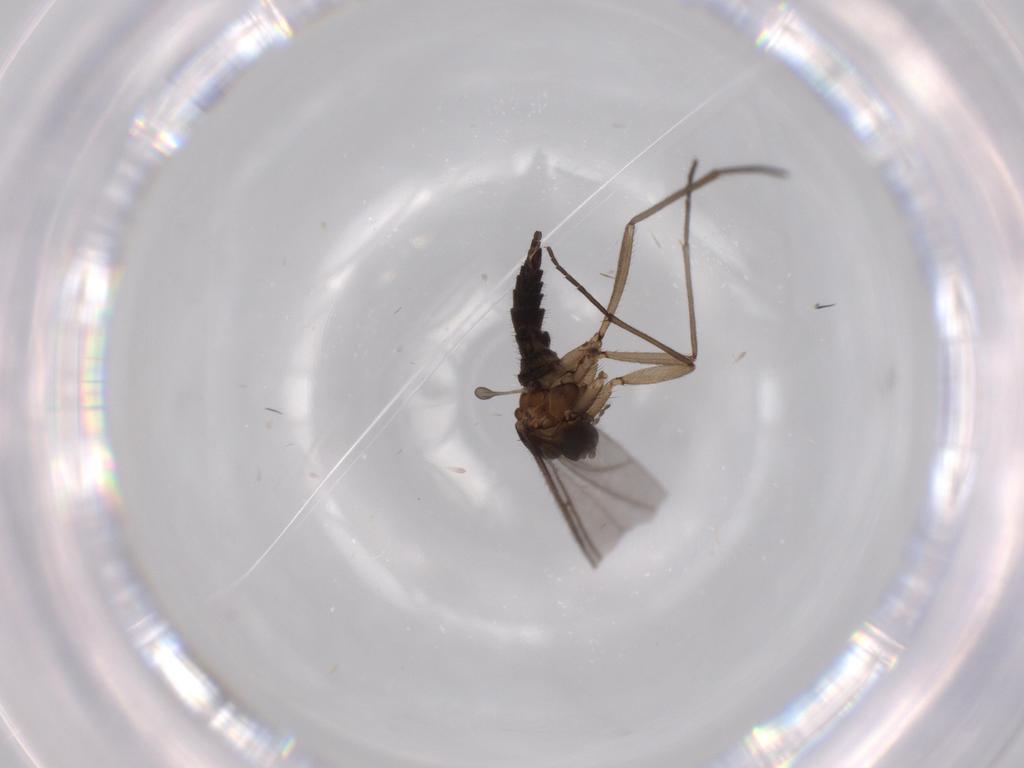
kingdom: Animalia
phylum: Arthropoda
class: Insecta
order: Diptera
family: Sciaridae
